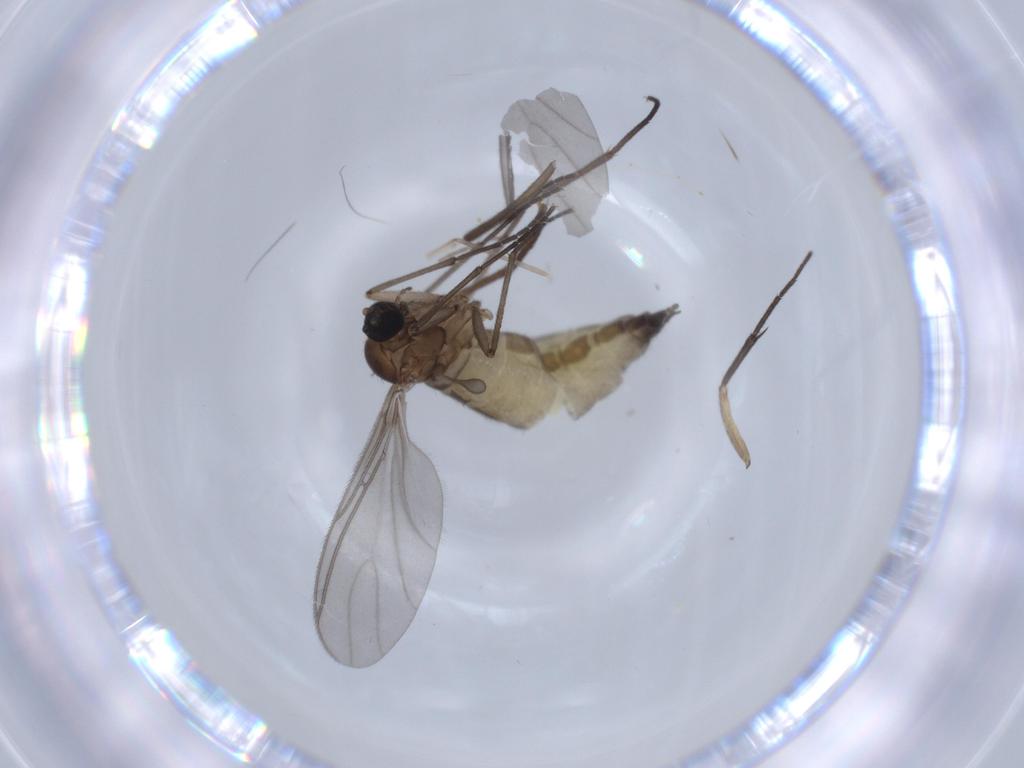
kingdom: Animalia
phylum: Arthropoda
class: Insecta
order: Diptera
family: Sciaridae
